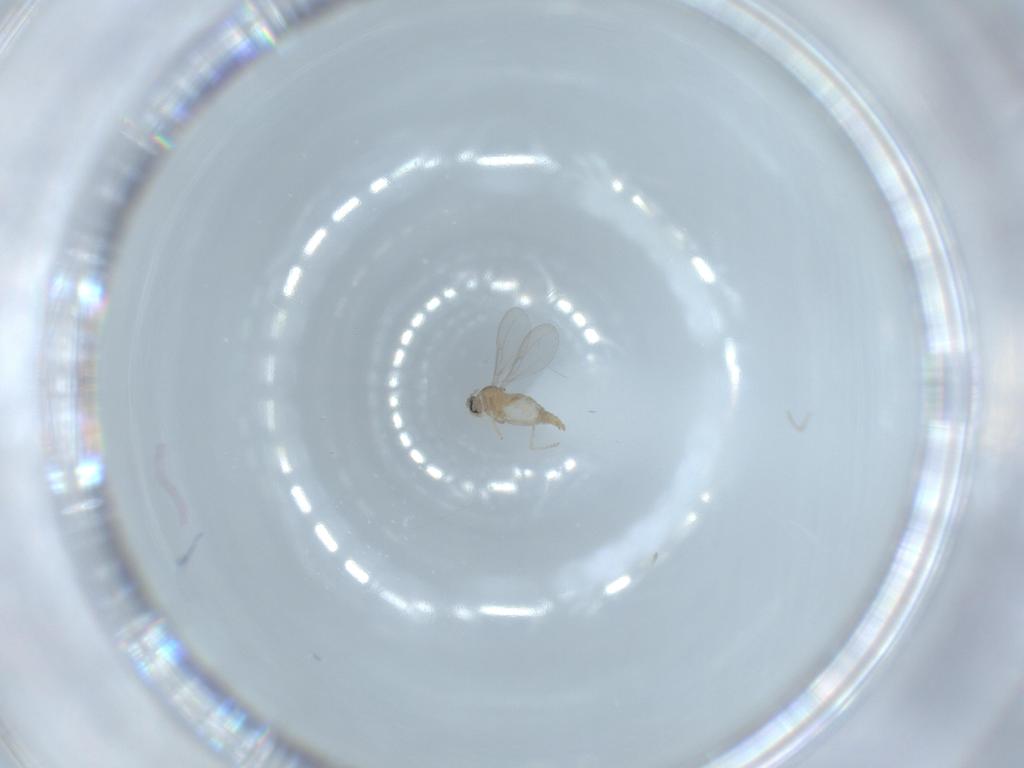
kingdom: Animalia
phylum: Arthropoda
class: Insecta
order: Diptera
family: Cecidomyiidae
